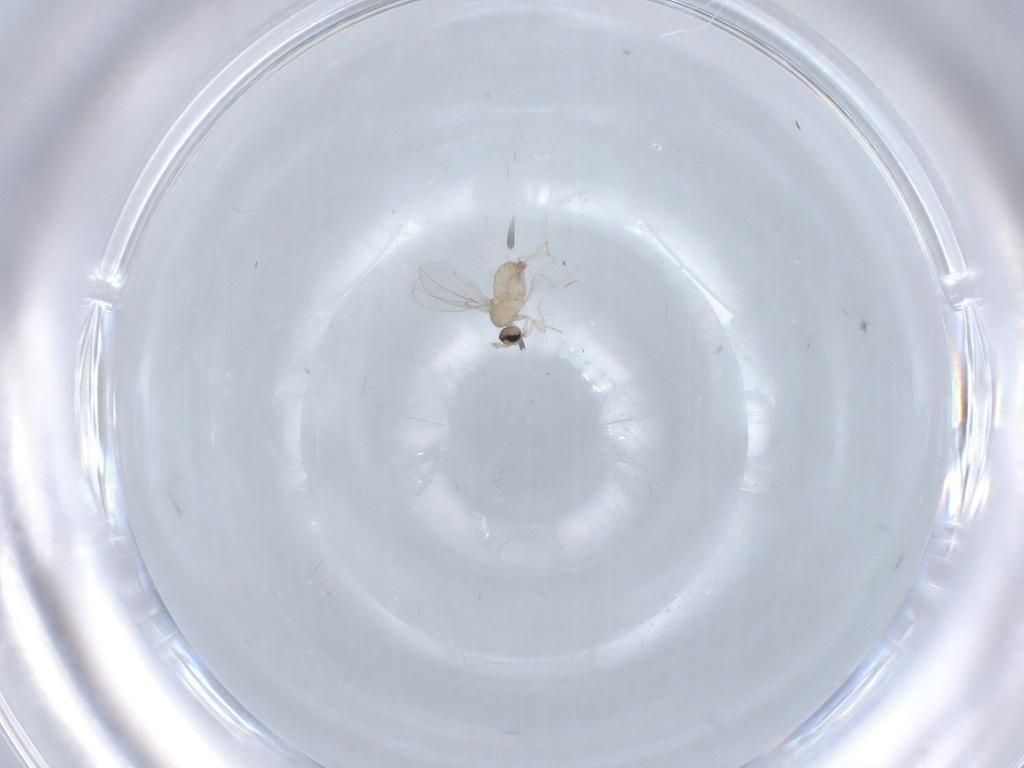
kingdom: Animalia
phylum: Arthropoda
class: Insecta
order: Diptera
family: Cecidomyiidae
